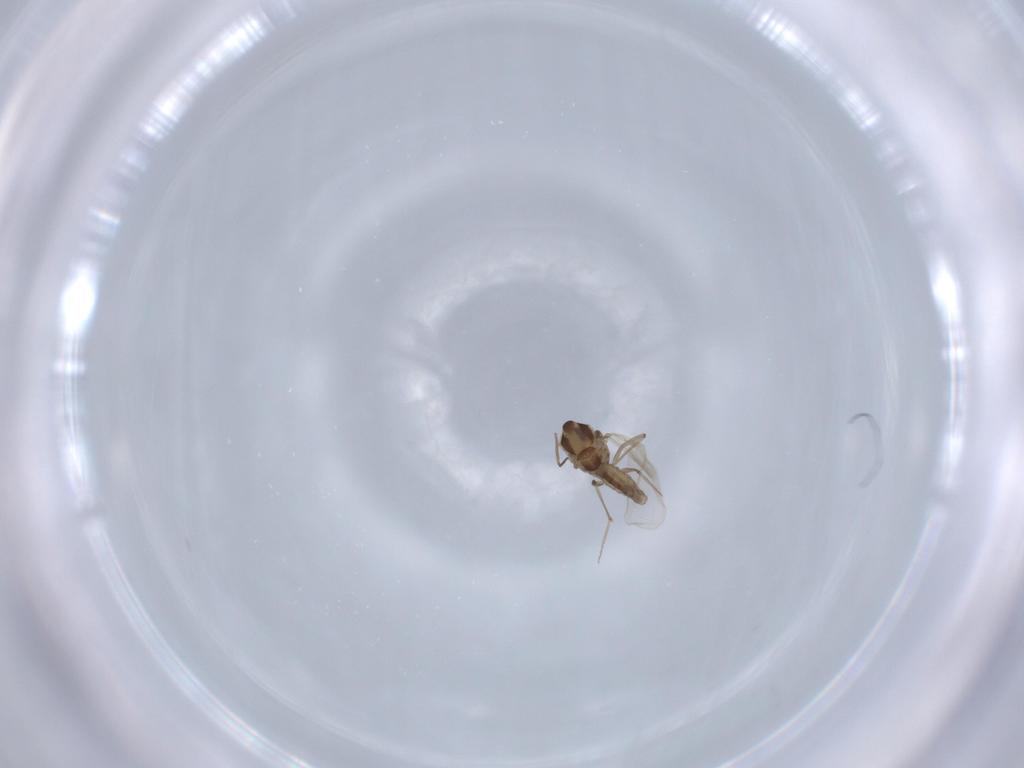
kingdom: Animalia
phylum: Arthropoda
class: Insecta
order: Diptera
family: Chironomidae
